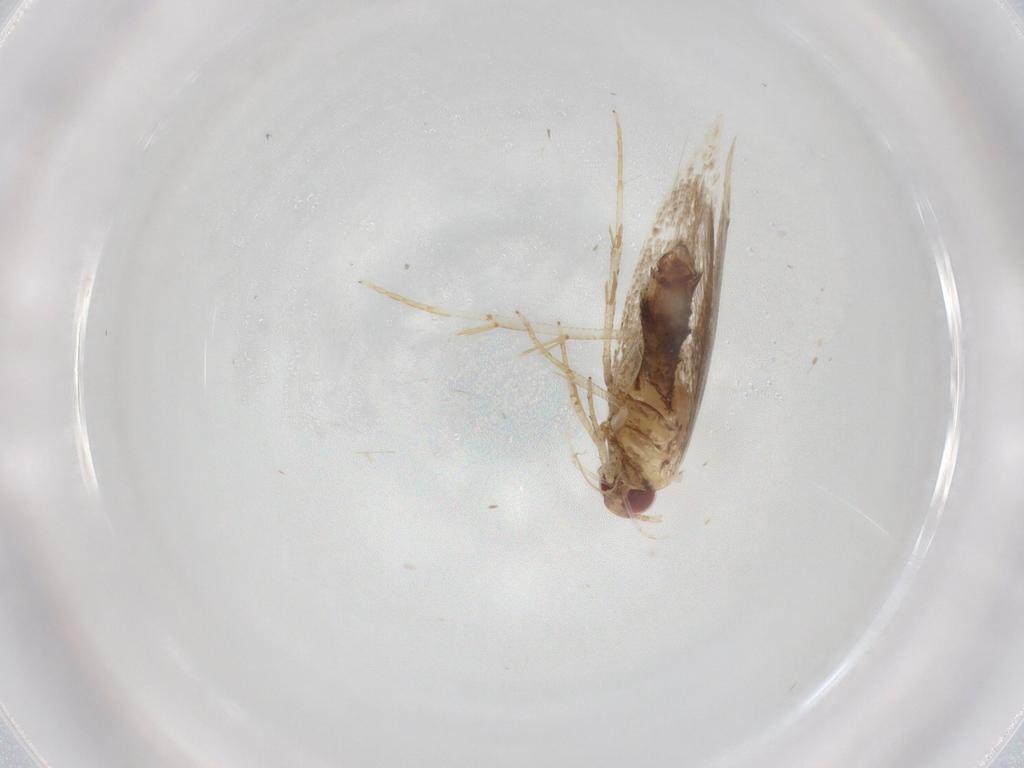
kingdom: Animalia
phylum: Arthropoda
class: Insecta
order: Lepidoptera
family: Cosmopterigidae
